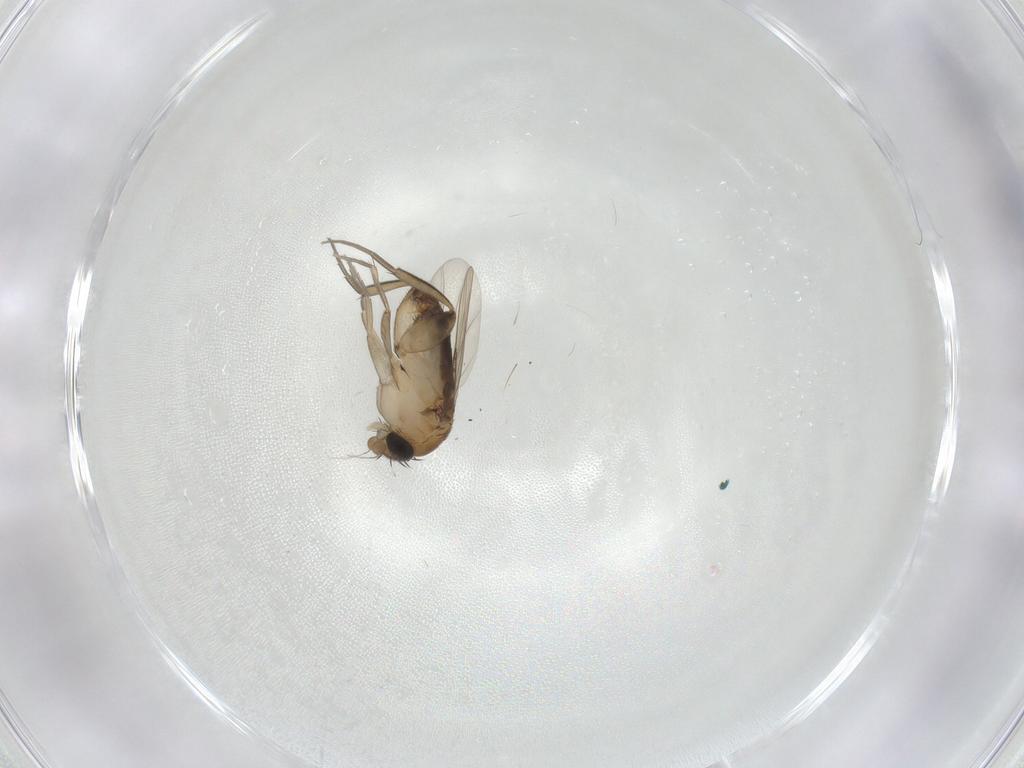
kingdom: Animalia
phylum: Arthropoda
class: Insecta
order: Diptera
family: Phoridae
